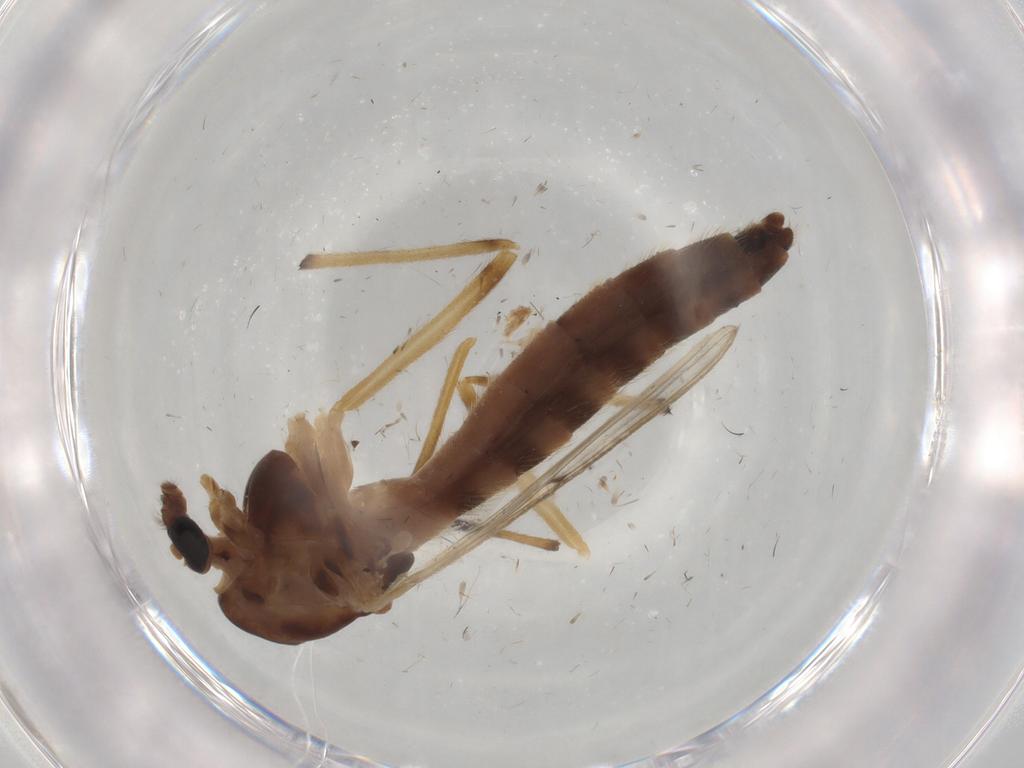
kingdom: Animalia
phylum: Arthropoda
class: Insecta
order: Diptera
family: Chironomidae
